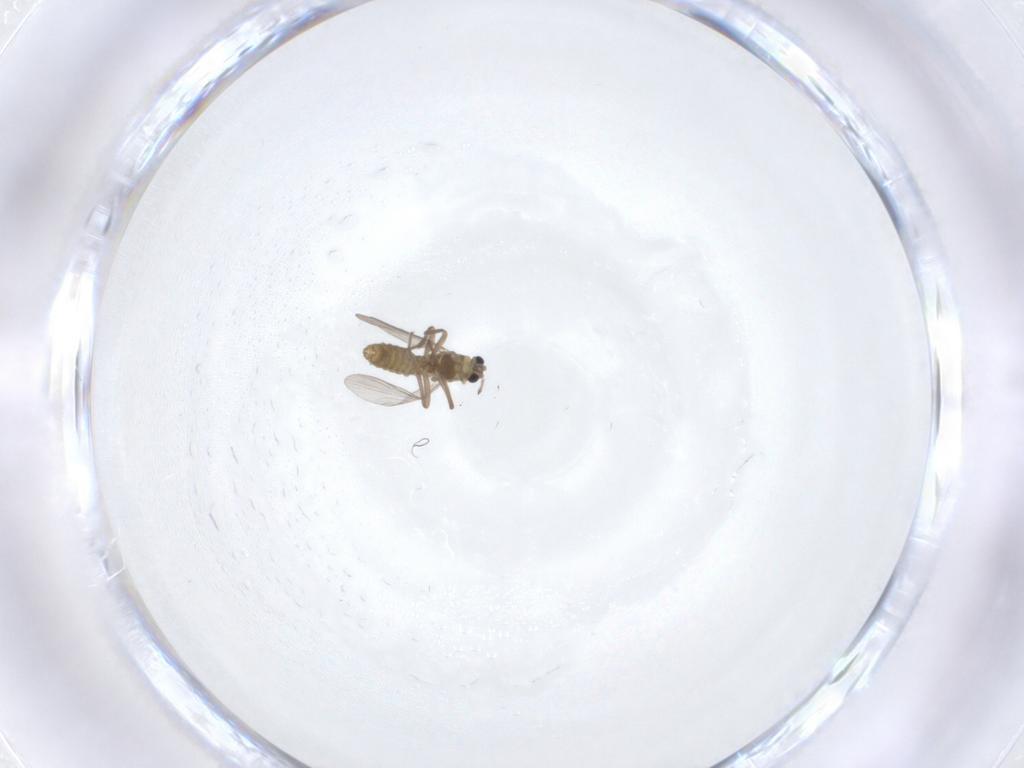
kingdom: Animalia
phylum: Arthropoda
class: Insecta
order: Diptera
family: Chironomidae
